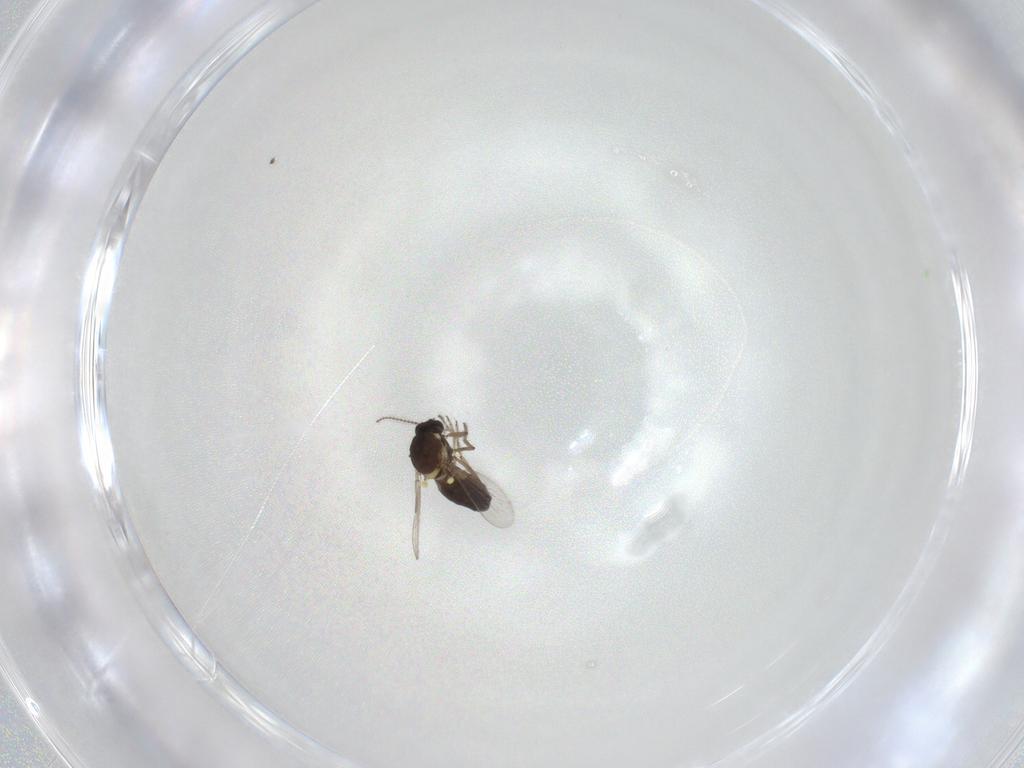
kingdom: Animalia
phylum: Arthropoda
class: Insecta
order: Diptera
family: Ceratopogonidae
